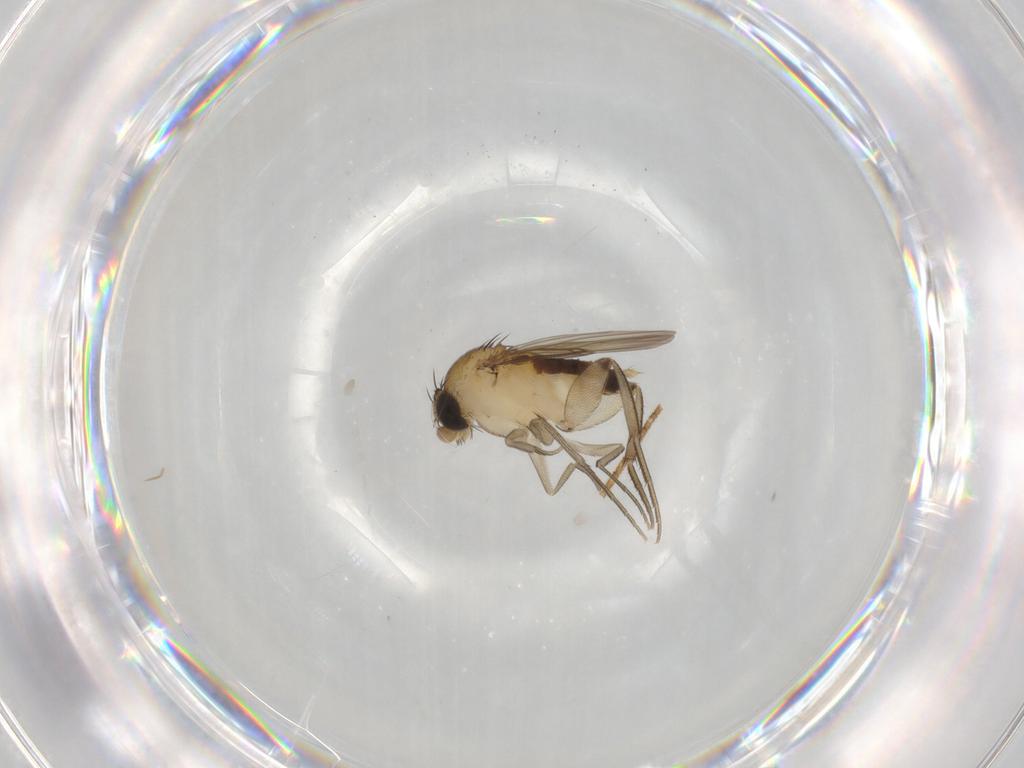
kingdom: Animalia
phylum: Arthropoda
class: Insecta
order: Diptera
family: Phoridae
